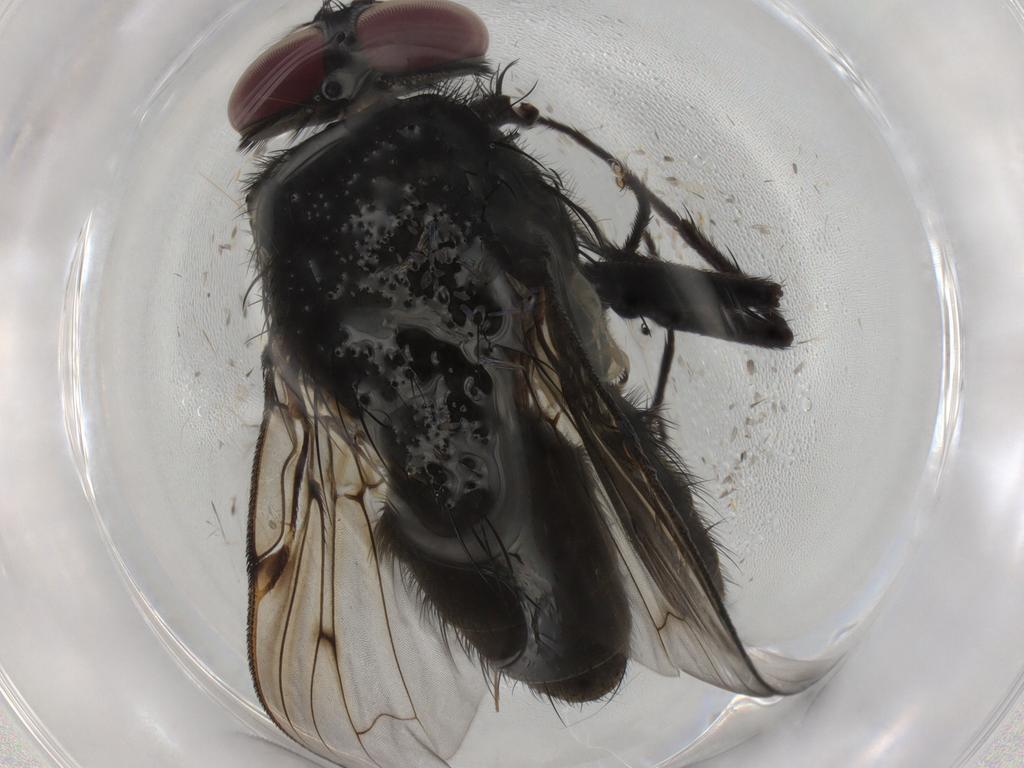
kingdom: Animalia
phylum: Arthropoda
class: Insecta
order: Diptera
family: Muscidae
